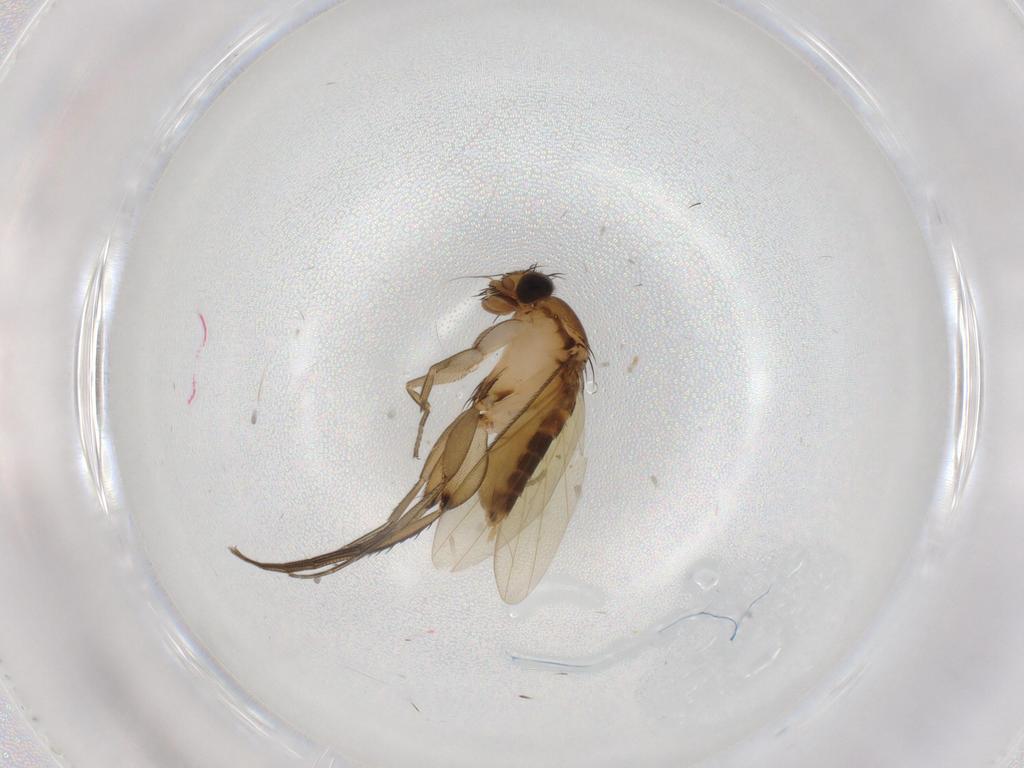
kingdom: Animalia
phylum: Arthropoda
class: Insecta
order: Diptera
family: Phoridae
